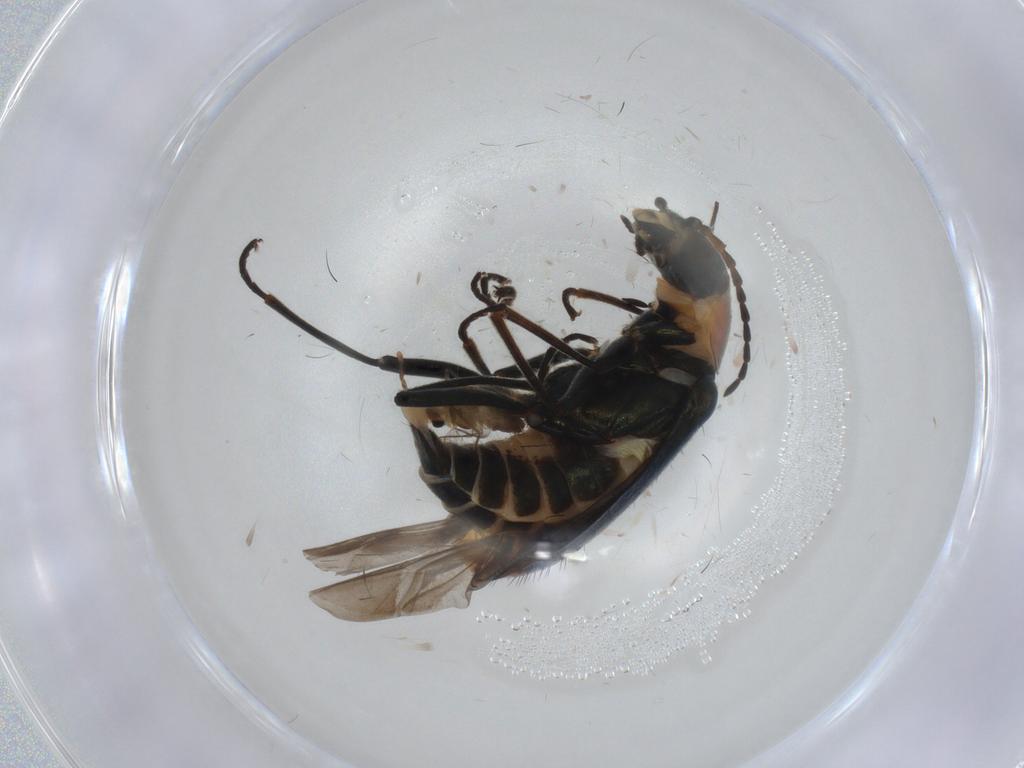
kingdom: Animalia
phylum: Arthropoda
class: Insecta
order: Coleoptera
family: Melyridae
